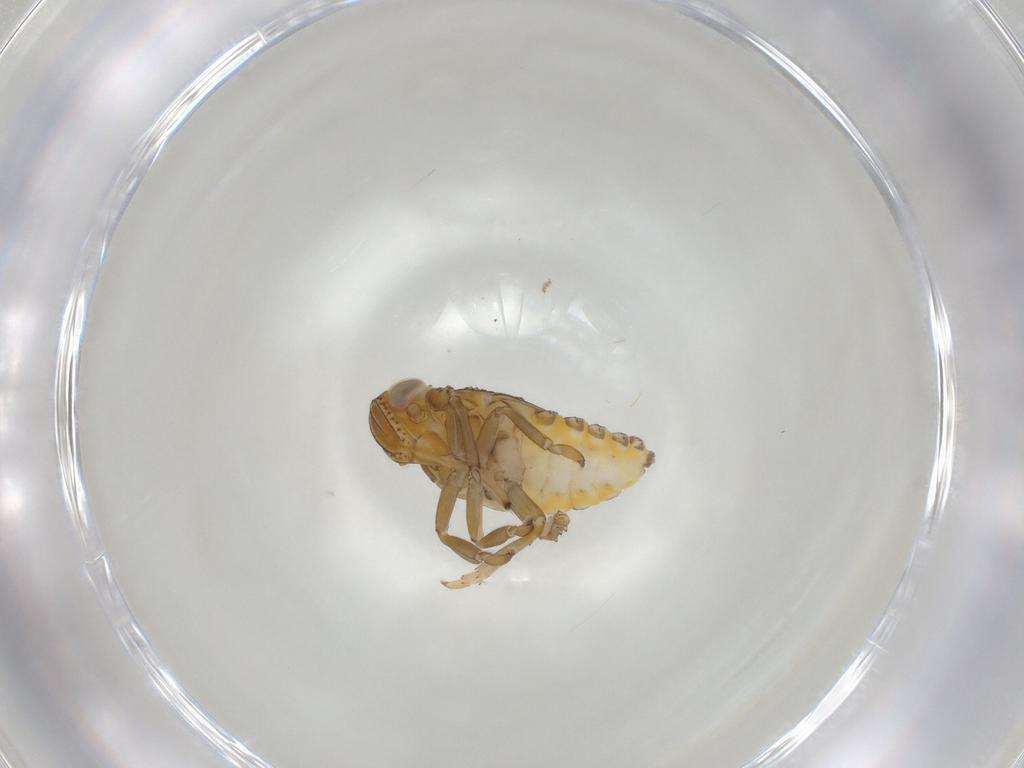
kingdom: Animalia
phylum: Arthropoda
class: Insecta
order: Hemiptera
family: Issidae
